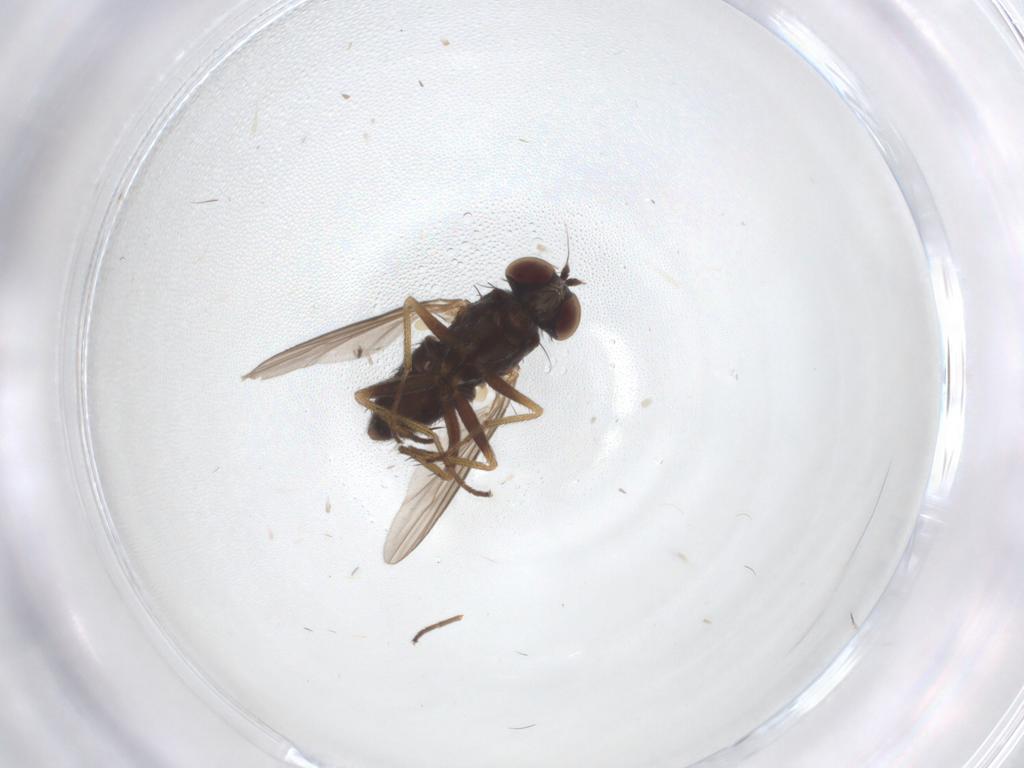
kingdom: Animalia
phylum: Arthropoda
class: Insecta
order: Diptera
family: Dolichopodidae
